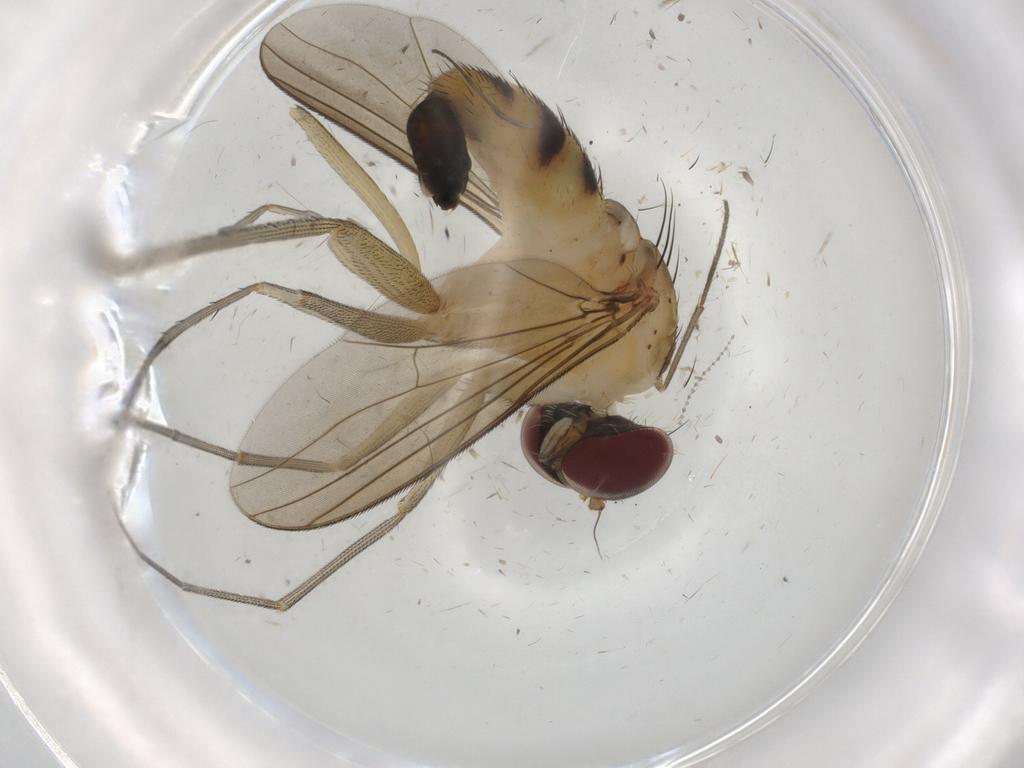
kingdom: Animalia
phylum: Arthropoda
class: Insecta
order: Diptera
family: Dolichopodidae
